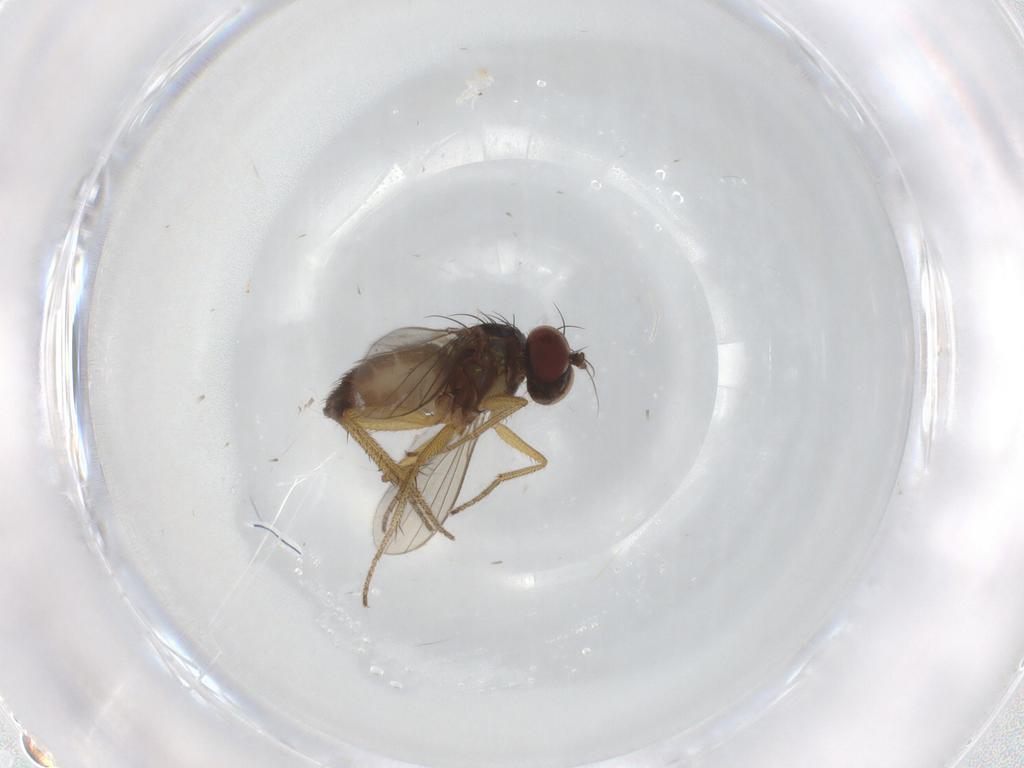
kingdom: Animalia
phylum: Arthropoda
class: Insecta
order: Diptera
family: Dolichopodidae
